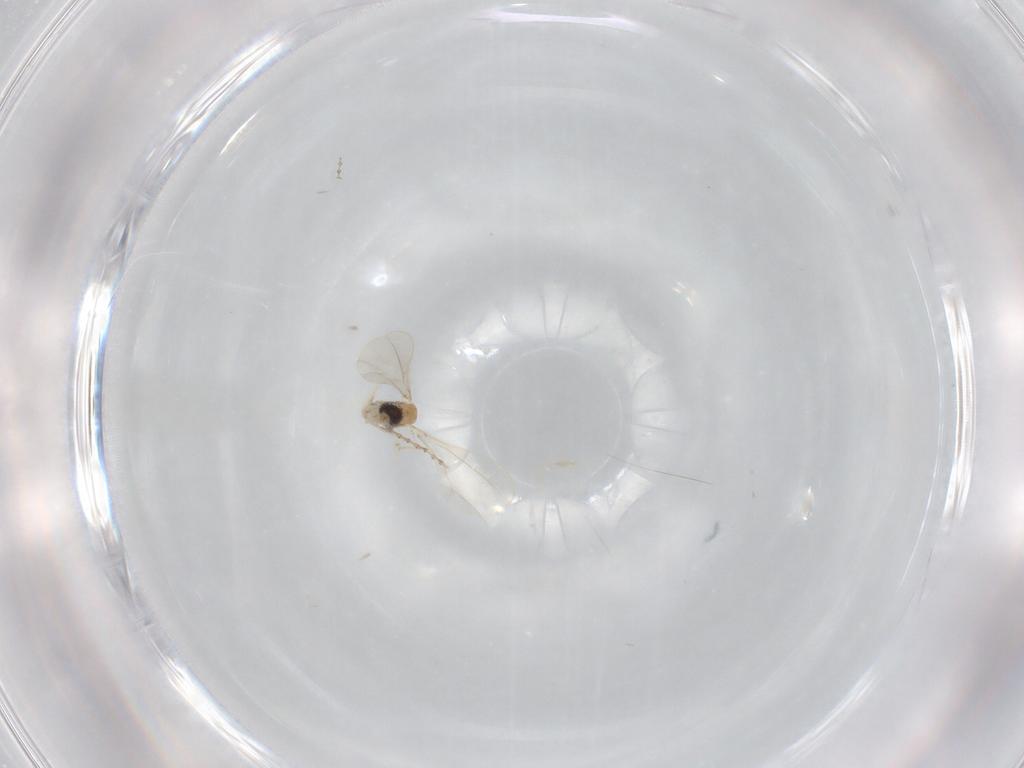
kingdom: Animalia
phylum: Arthropoda
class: Insecta
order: Diptera
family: Cecidomyiidae
